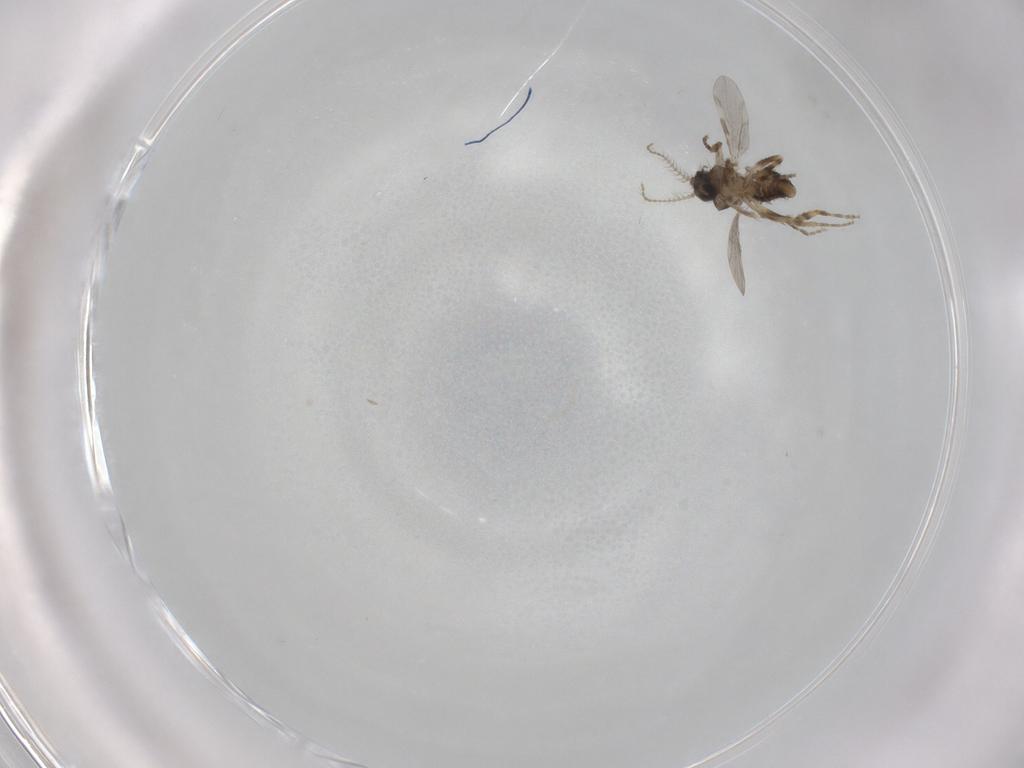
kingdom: Animalia
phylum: Arthropoda
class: Insecta
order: Diptera
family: Ceratopogonidae
